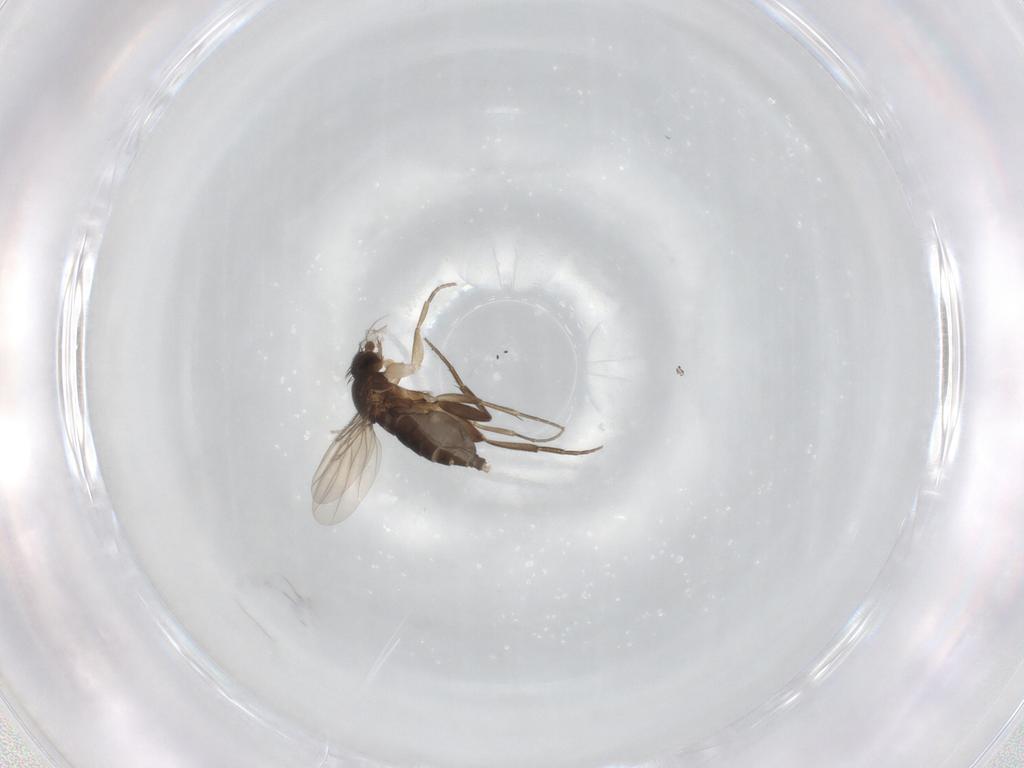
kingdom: Animalia
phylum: Arthropoda
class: Insecta
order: Diptera
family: Phoridae
